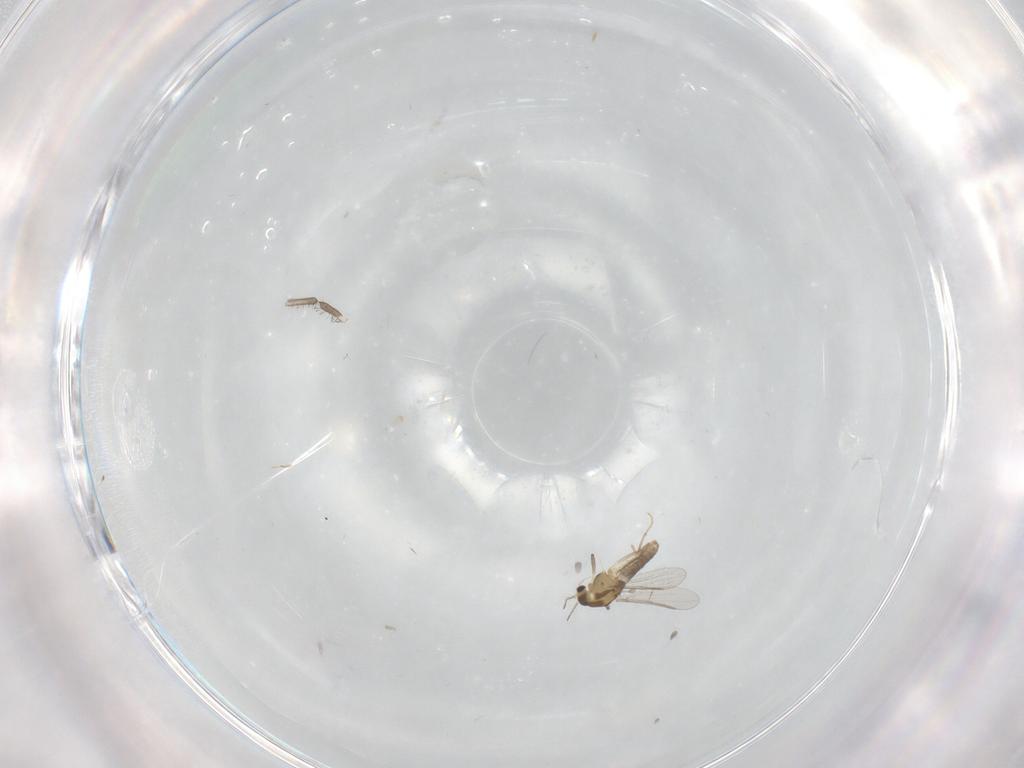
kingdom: Animalia
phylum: Arthropoda
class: Insecta
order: Diptera
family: Chironomidae
